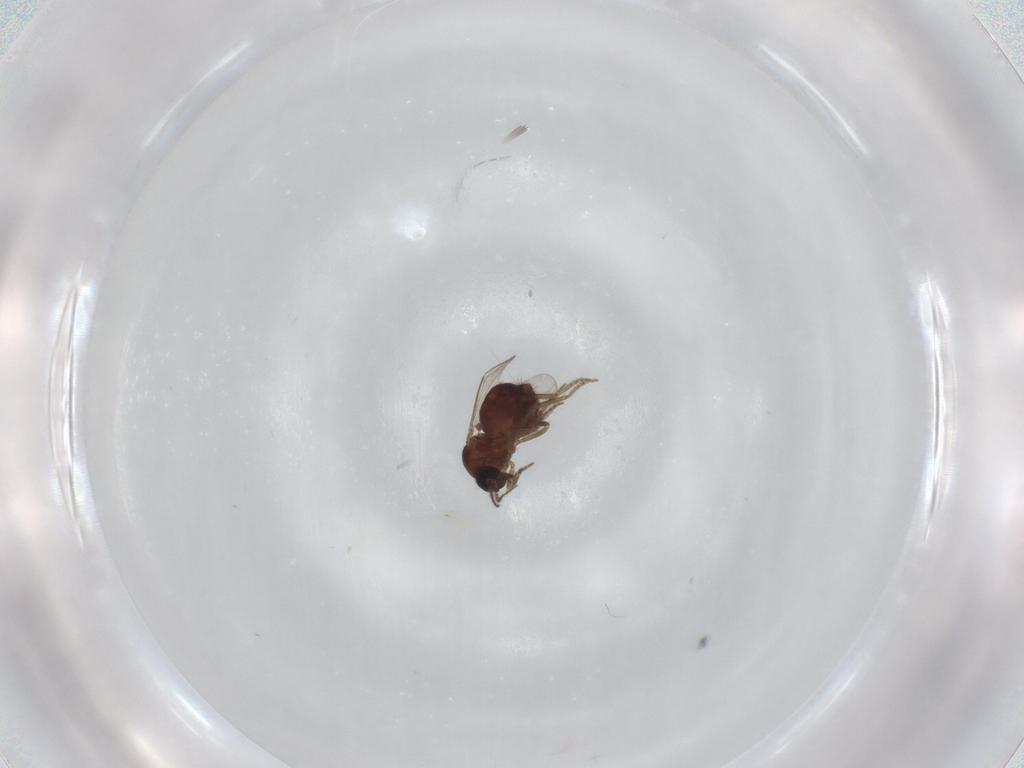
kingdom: Animalia
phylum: Arthropoda
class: Insecta
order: Diptera
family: Ceratopogonidae
